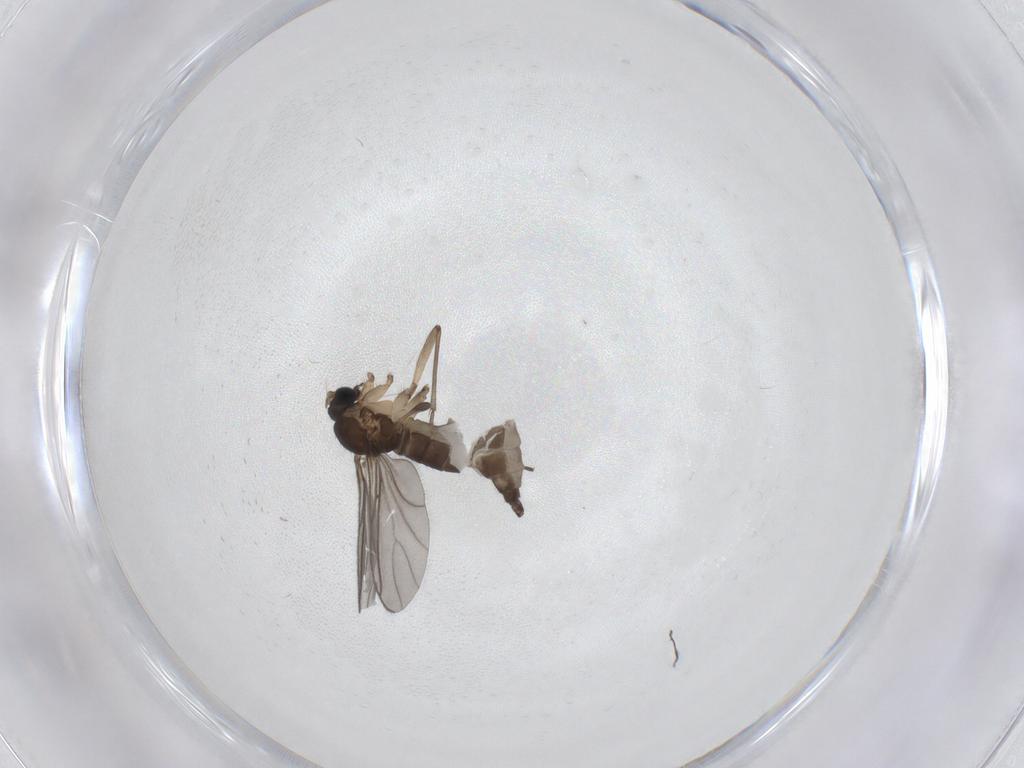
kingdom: Animalia
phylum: Arthropoda
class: Insecta
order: Diptera
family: Sciaridae
